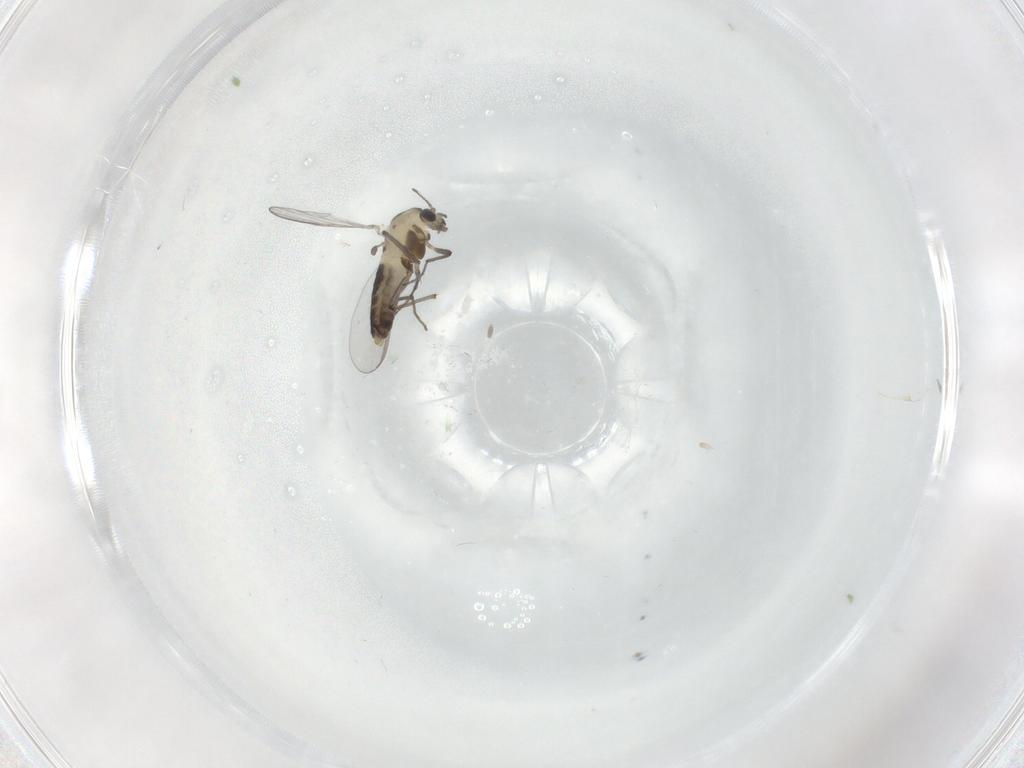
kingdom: Animalia
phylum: Arthropoda
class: Insecta
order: Diptera
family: Chironomidae
